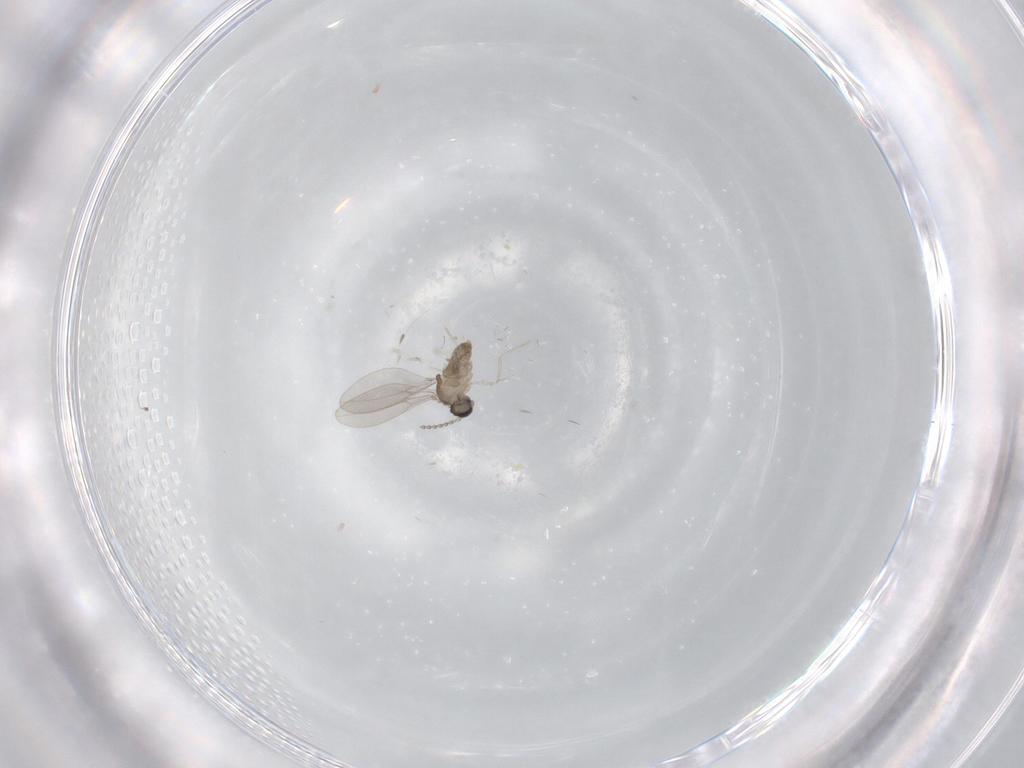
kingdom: Animalia
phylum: Arthropoda
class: Insecta
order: Diptera
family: Cecidomyiidae
